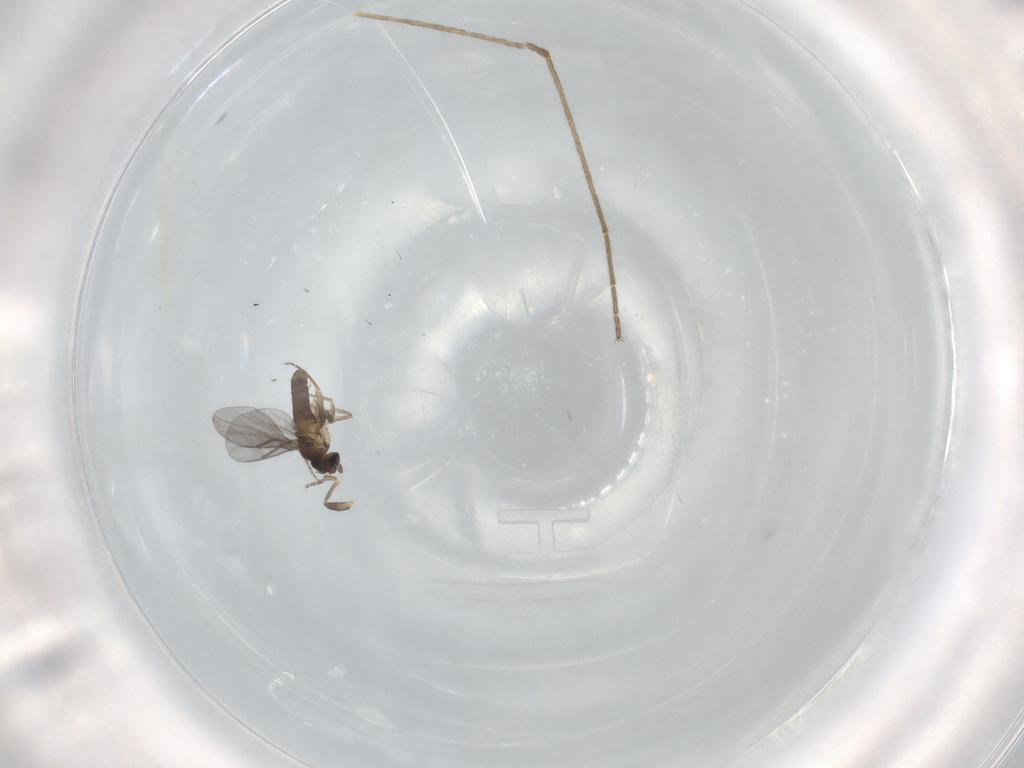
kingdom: Animalia
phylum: Arthropoda
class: Insecta
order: Diptera
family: Limoniidae
